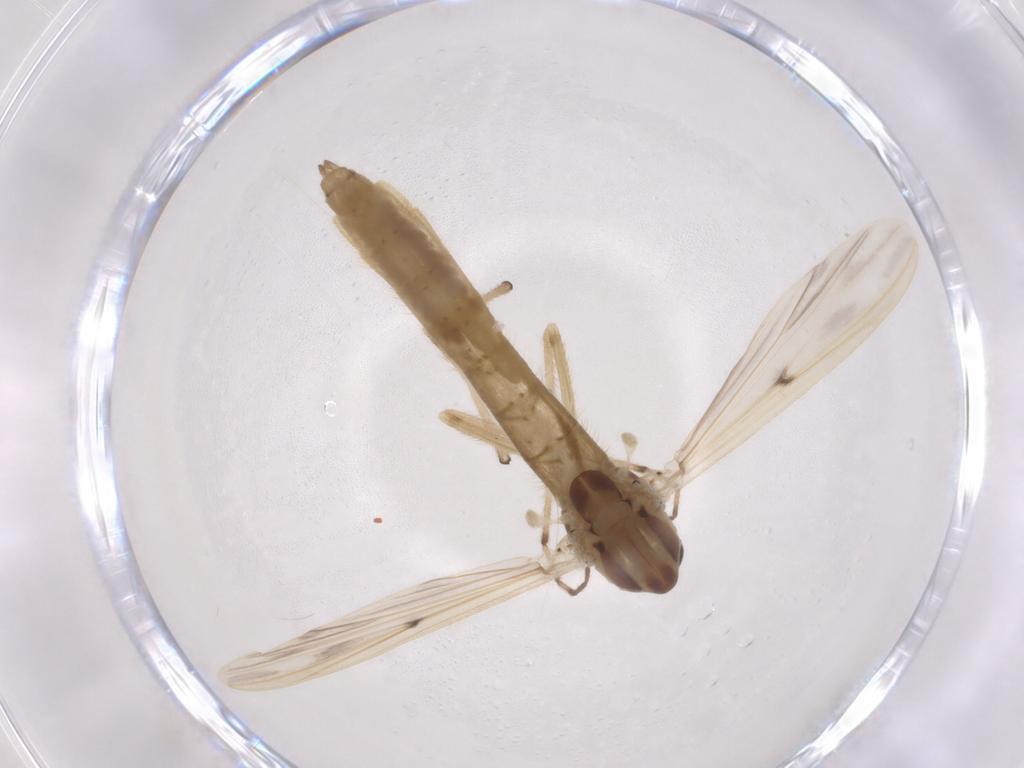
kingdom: Animalia
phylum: Arthropoda
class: Insecta
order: Diptera
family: Chironomidae
